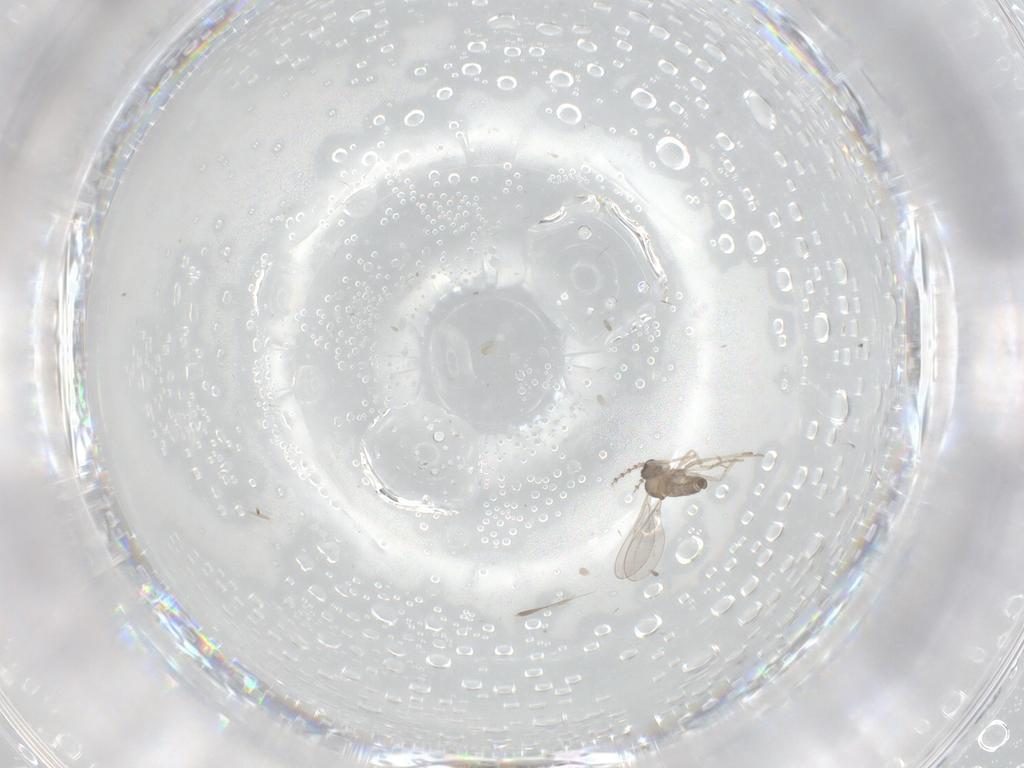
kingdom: Animalia
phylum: Arthropoda
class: Insecta
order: Diptera
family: Cecidomyiidae
